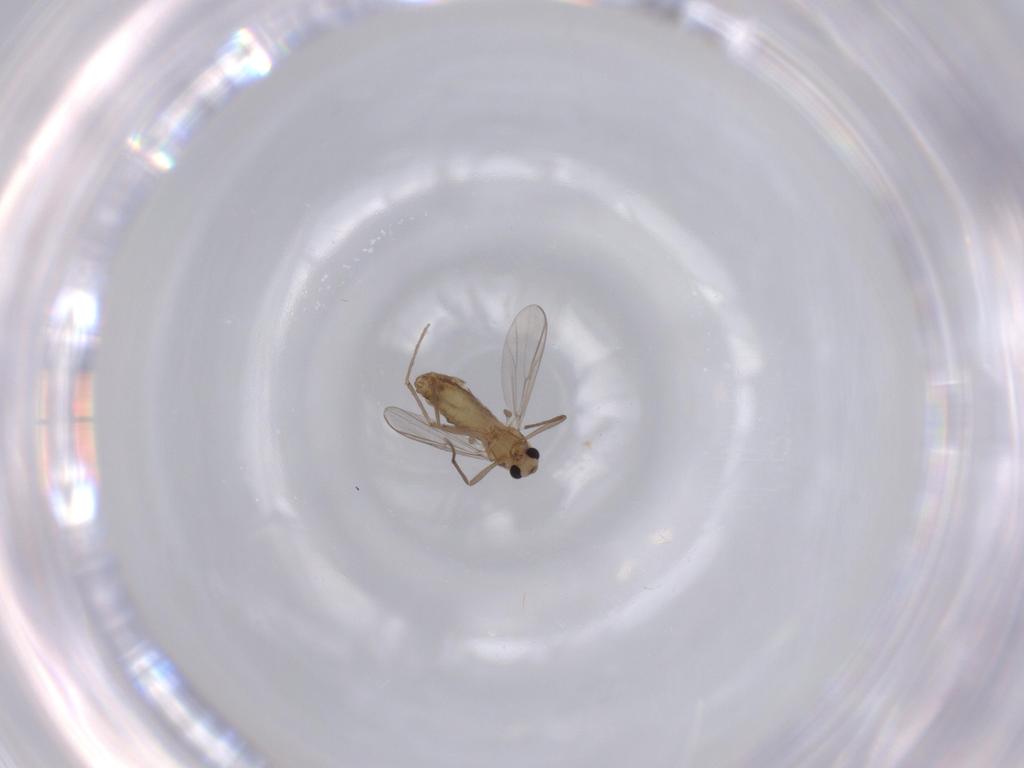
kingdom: Animalia
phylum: Arthropoda
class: Insecta
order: Diptera
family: Chironomidae
